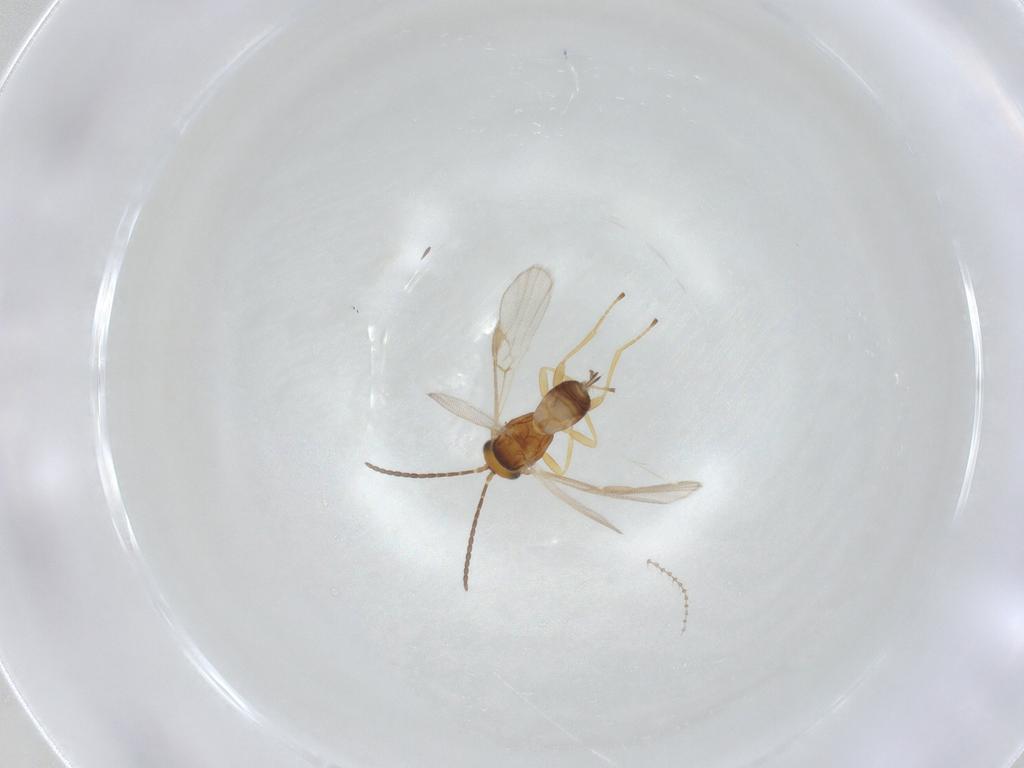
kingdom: Animalia
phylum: Arthropoda
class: Insecta
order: Hymenoptera
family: Braconidae
